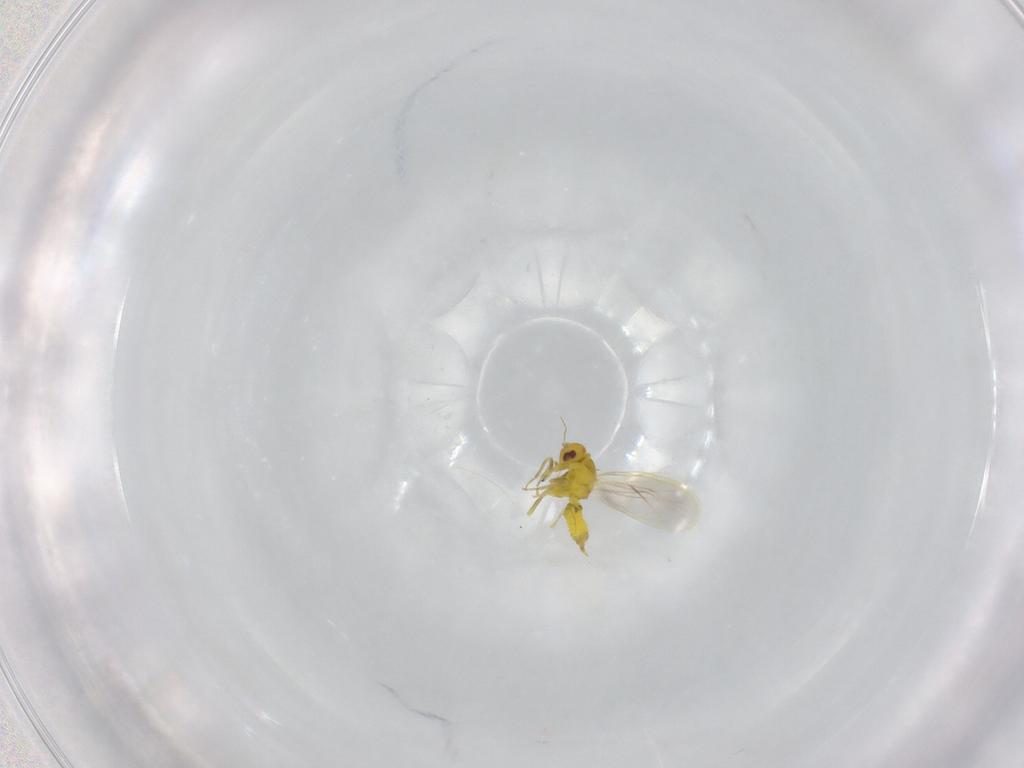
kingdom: Animalia
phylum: Arthropoda
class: Insecta
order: Hemiptera
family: Aleyrodidae
